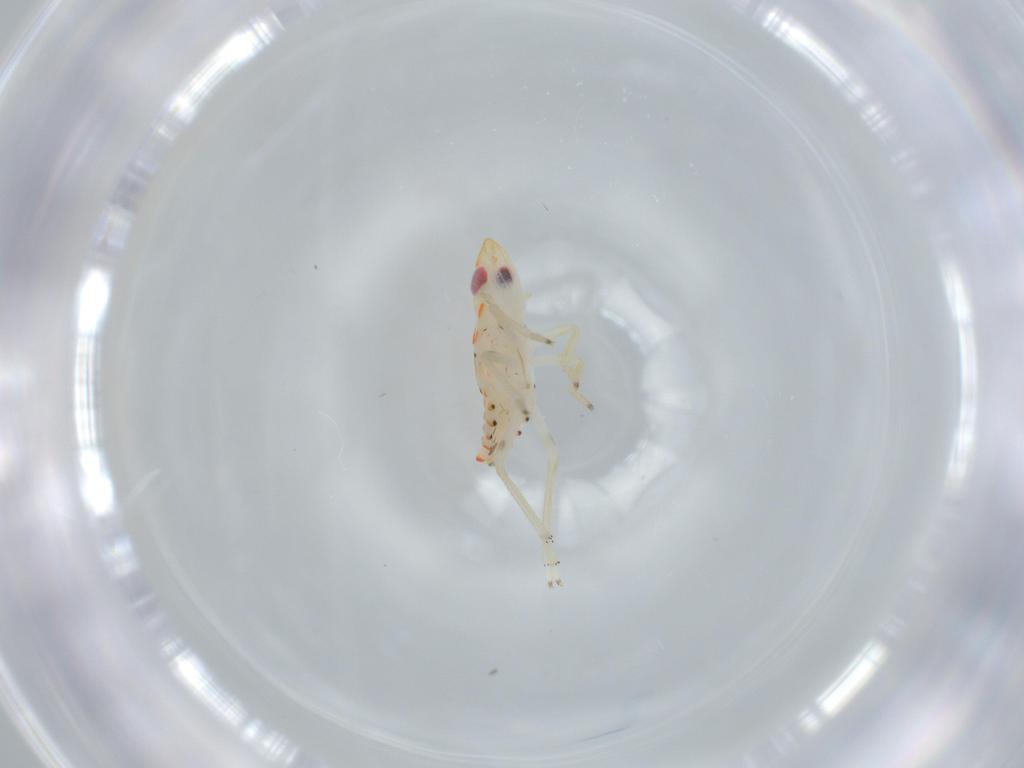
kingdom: Animalia
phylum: Arthropoda
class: Insecta
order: Hemiptera
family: Tropiduchidae
